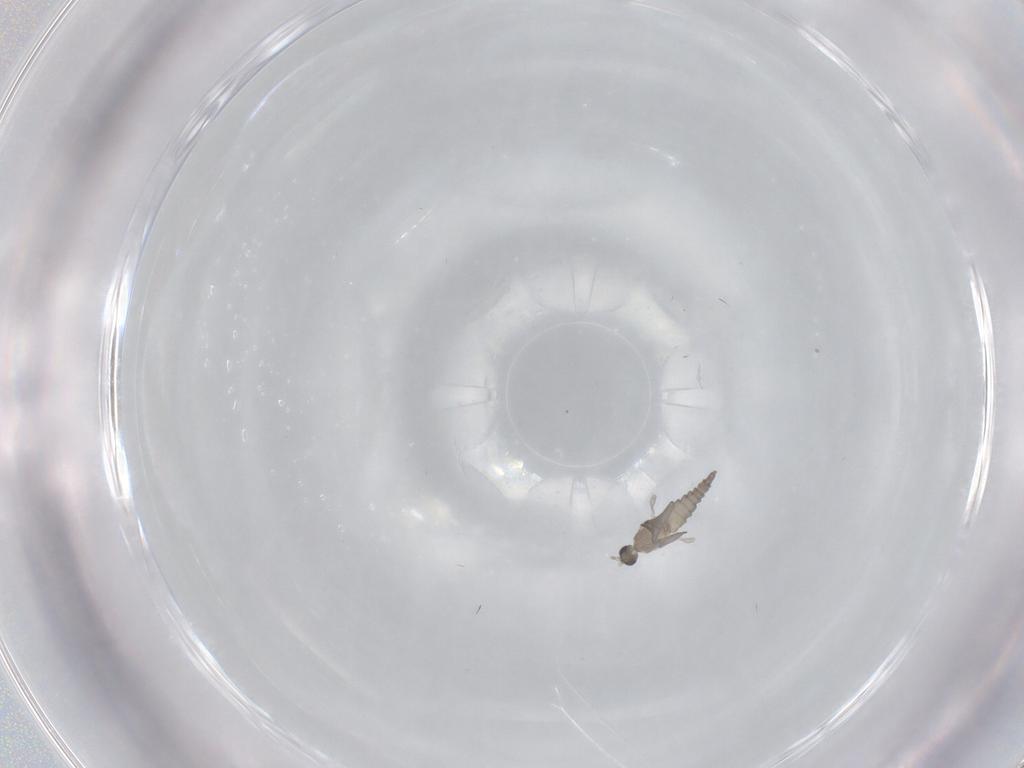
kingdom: Animalia
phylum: Arthropoda
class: Insecta
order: Diptera
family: Cecidomyiidae
